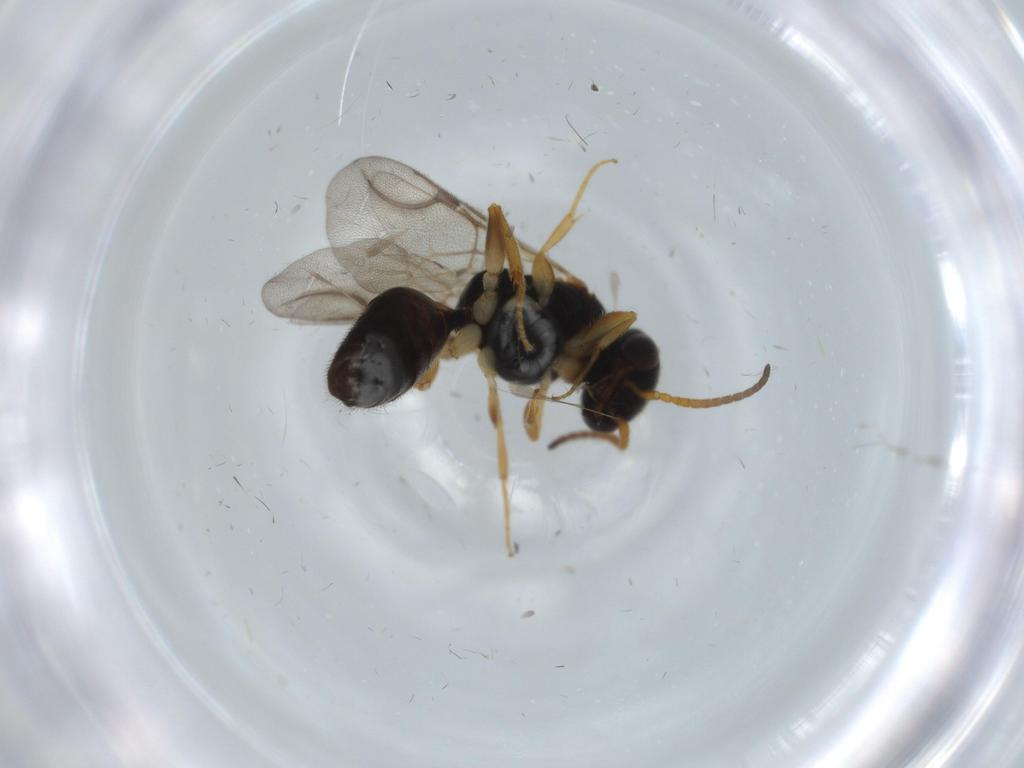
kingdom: Animalia
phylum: Arthropoda
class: Insecta
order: Hymenoptera
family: Bethylidae
